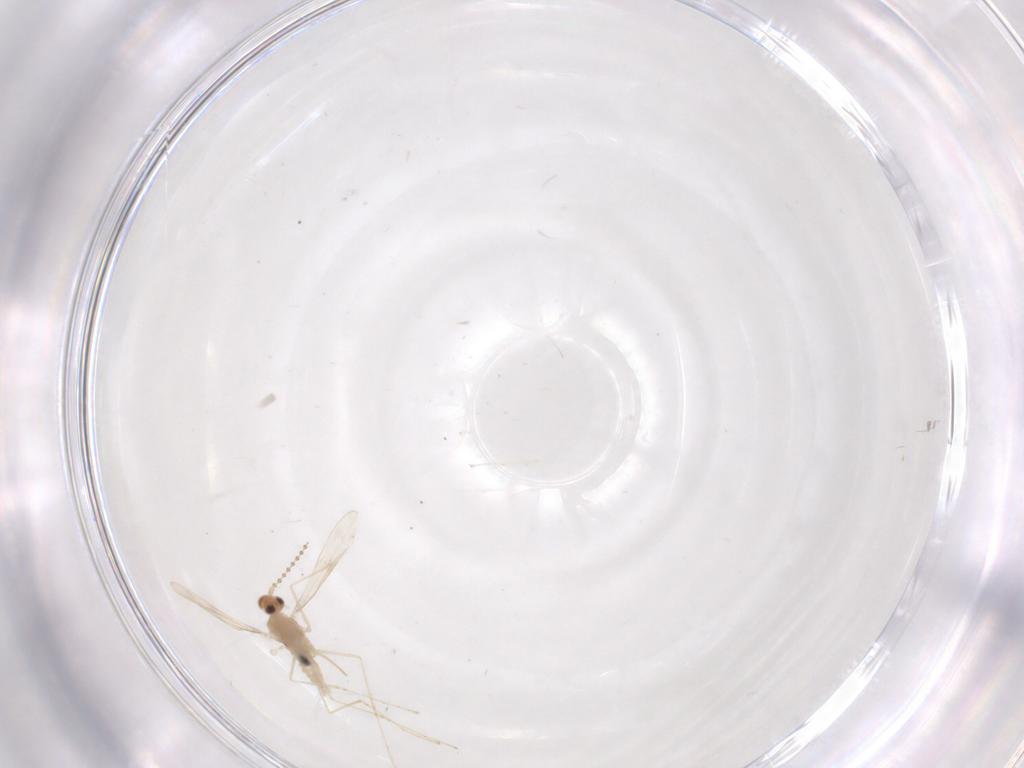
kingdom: Animalia
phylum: Arthropoda
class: Insecta
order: Diptera
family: Cecidomyiidae
